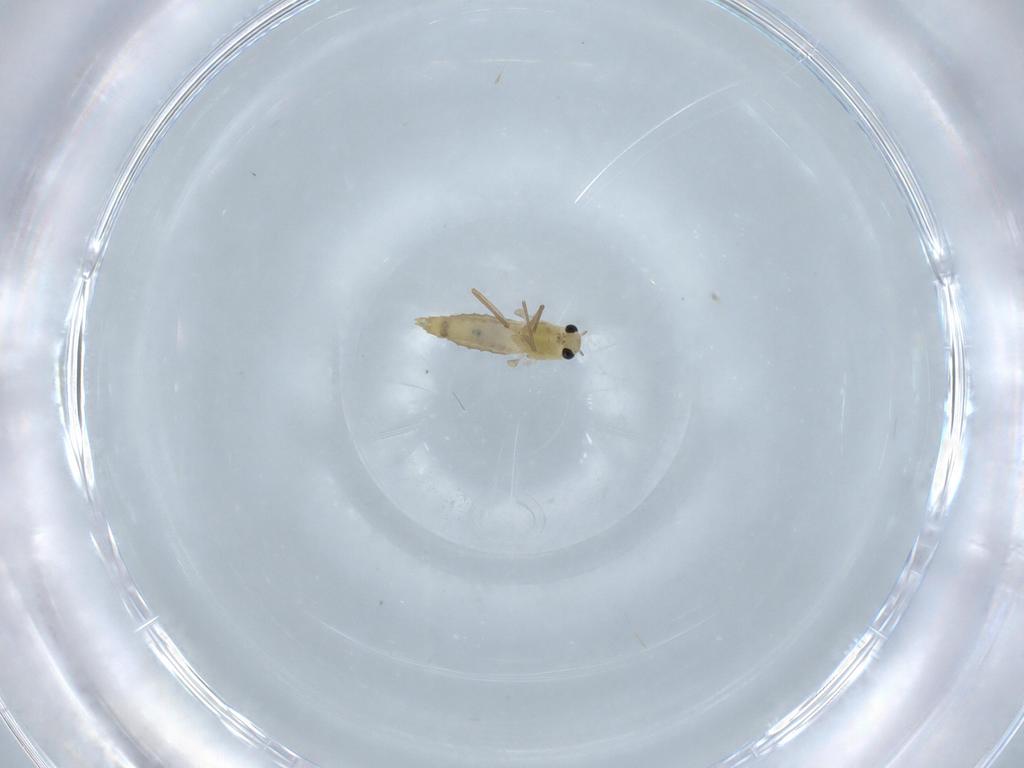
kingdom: Animalia
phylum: Arthropoda
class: Insecta
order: Diptera
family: Chironomidae
